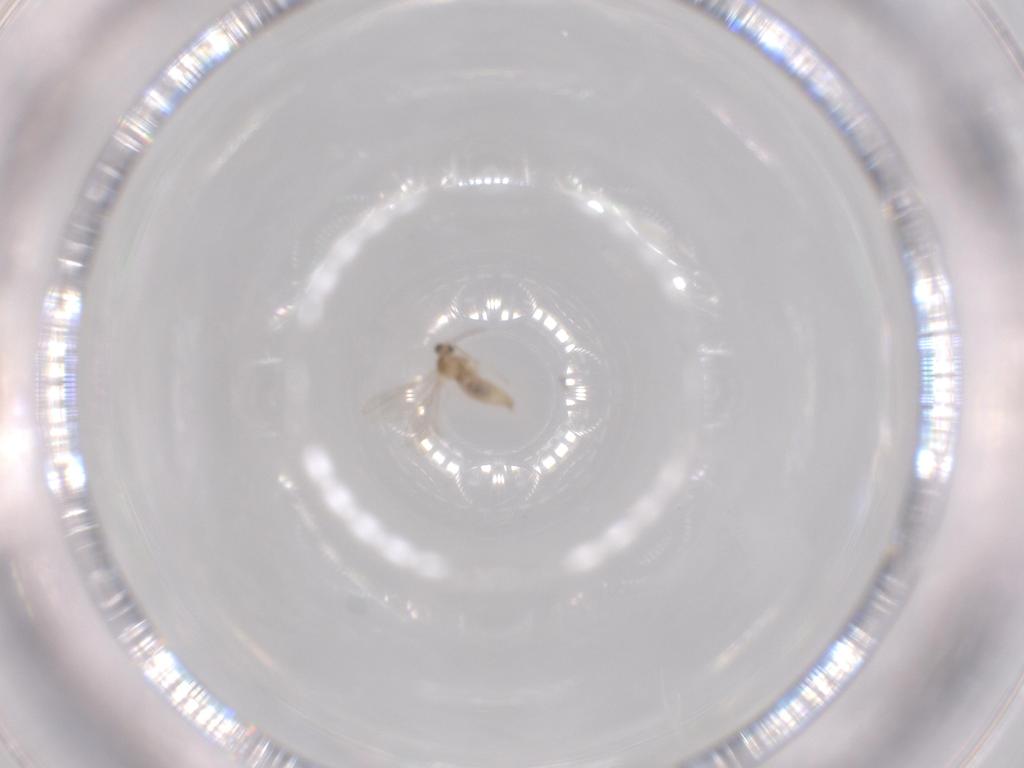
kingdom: Animalia
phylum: Arthropoda
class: Insecta
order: Diptera
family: Cecidomyiidae
